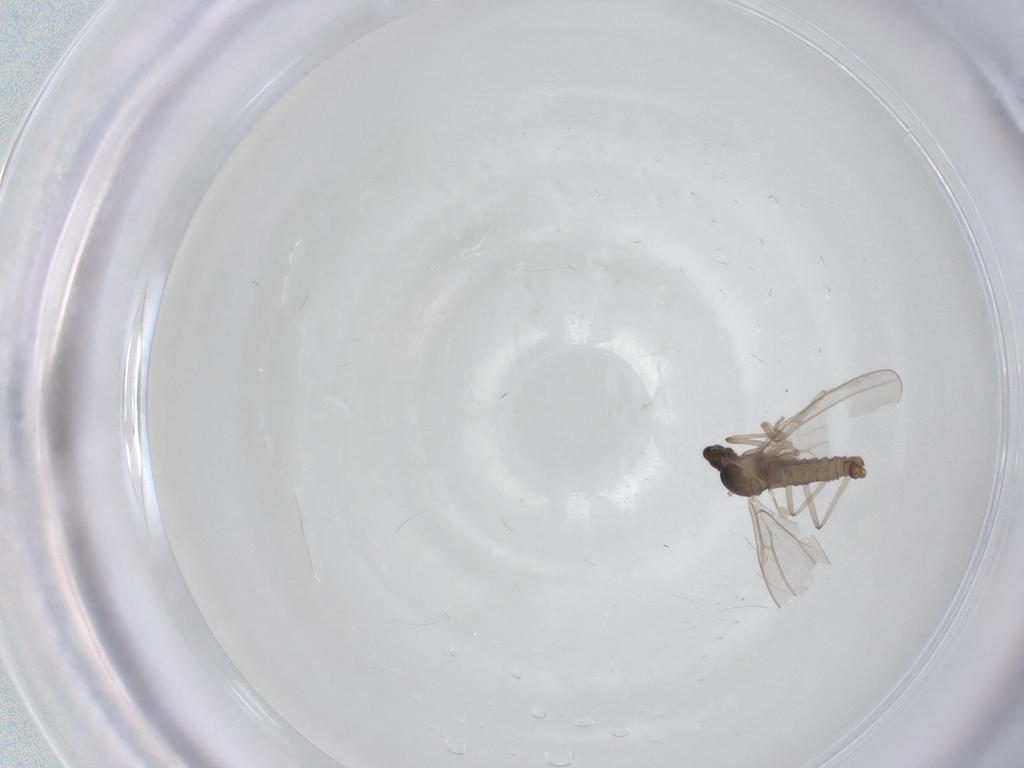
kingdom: Animalia
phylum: Arthropoda
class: Insecta
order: Diptera
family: Cecidomyiidae
